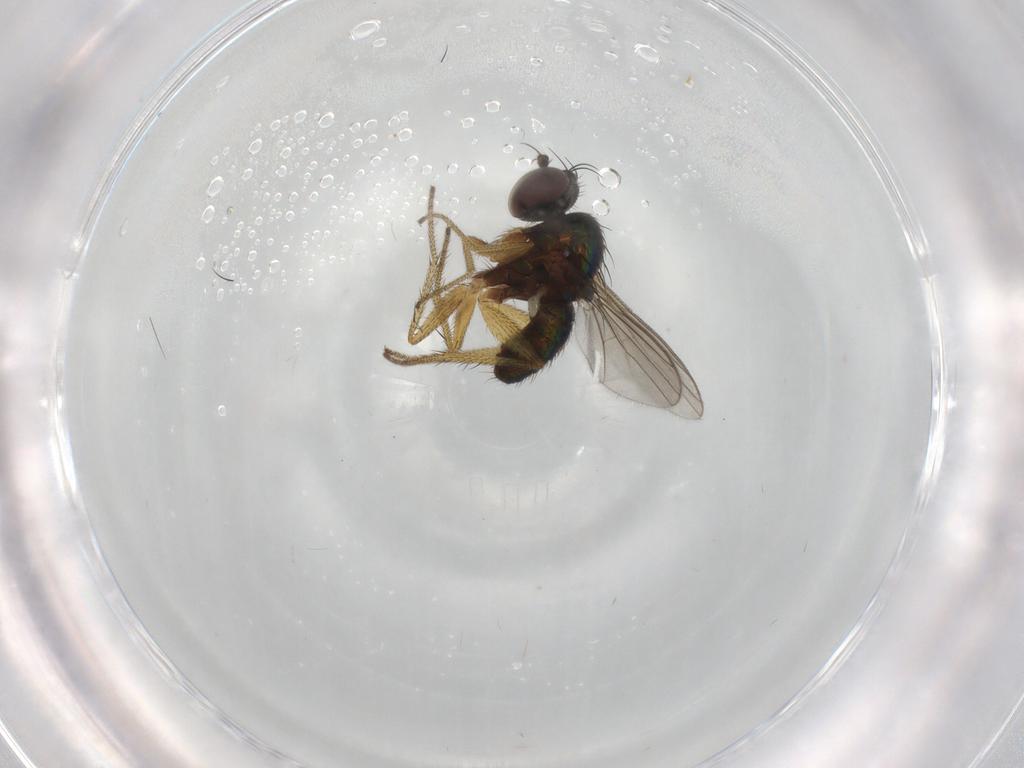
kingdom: Animalia
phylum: Arthropoda
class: Insecta
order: Diptera
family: Dolichopodidae
